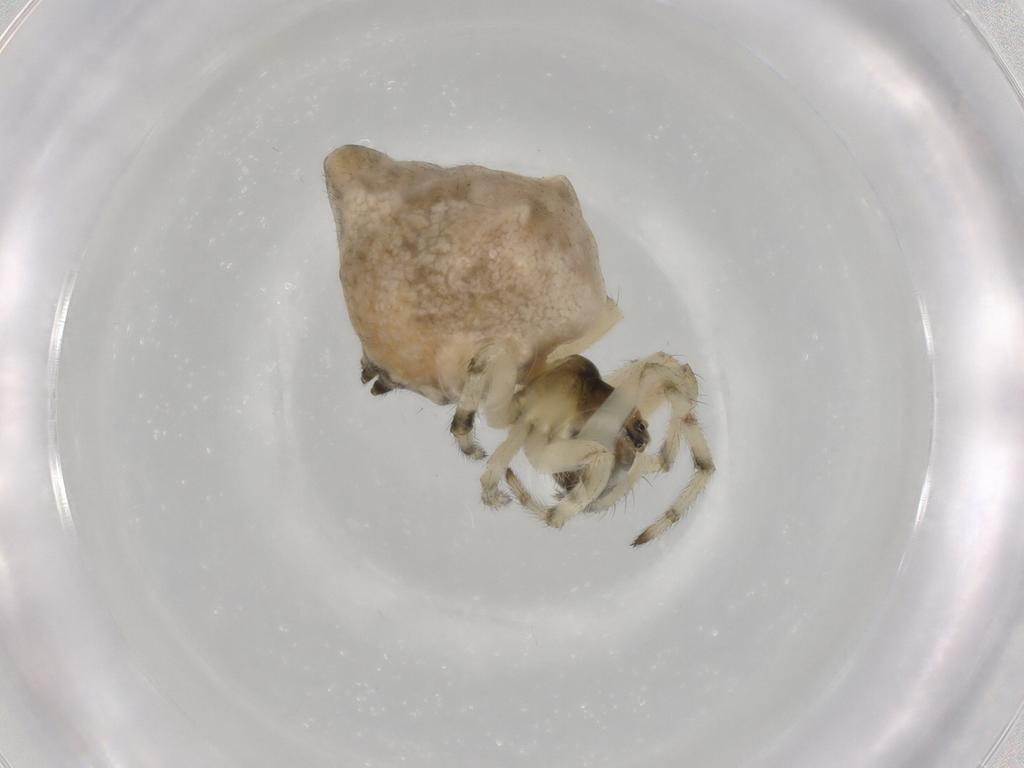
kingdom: Animalia
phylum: Arthropoda
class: Arachnida
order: Araneae
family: Araneidae
